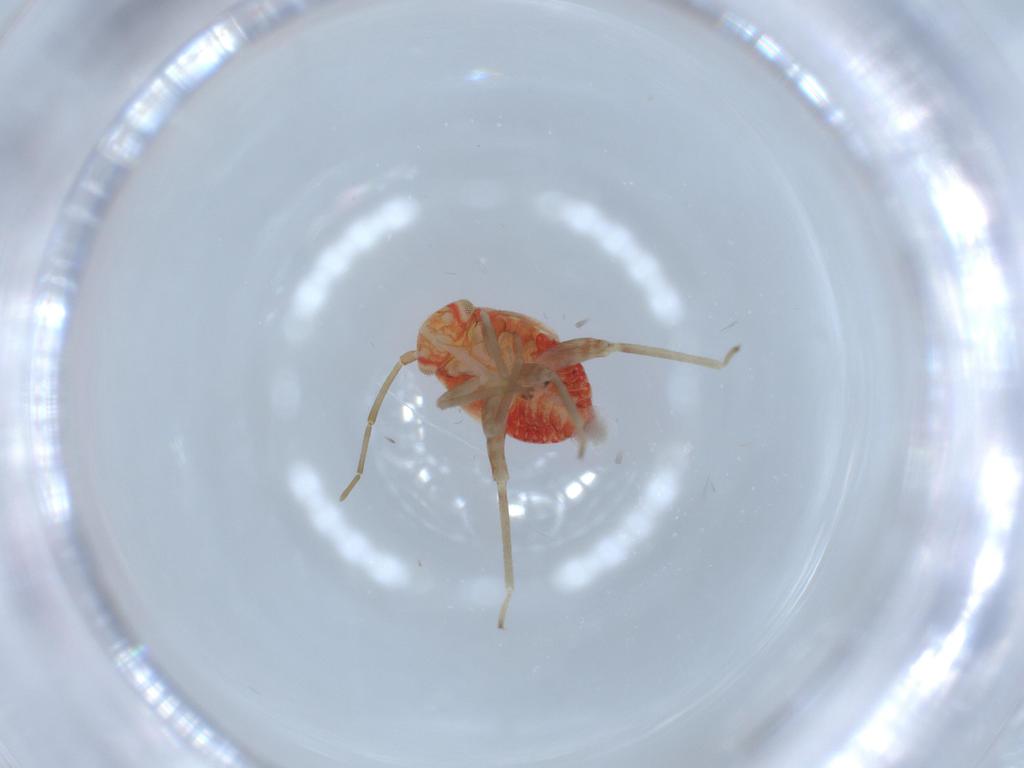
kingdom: Animalia
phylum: Arthropoda
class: Insecta
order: Hemiptera
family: Miridae
